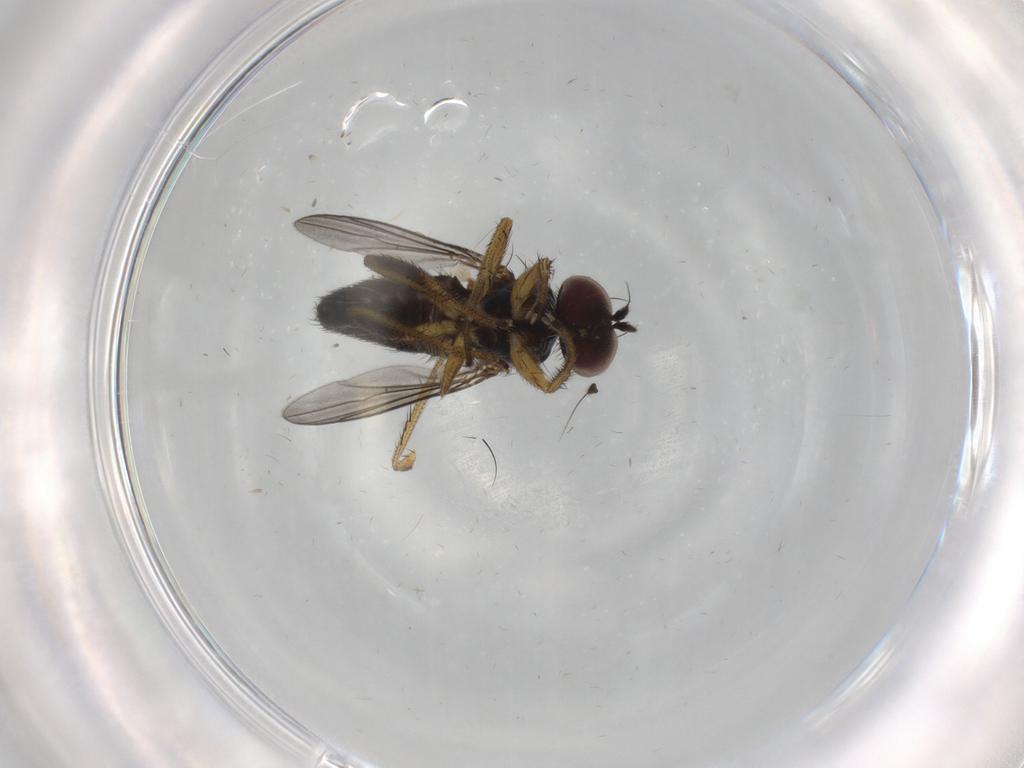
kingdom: Animalia
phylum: Arthropoda
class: Insecta
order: Diptera
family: Dolichopodidae
